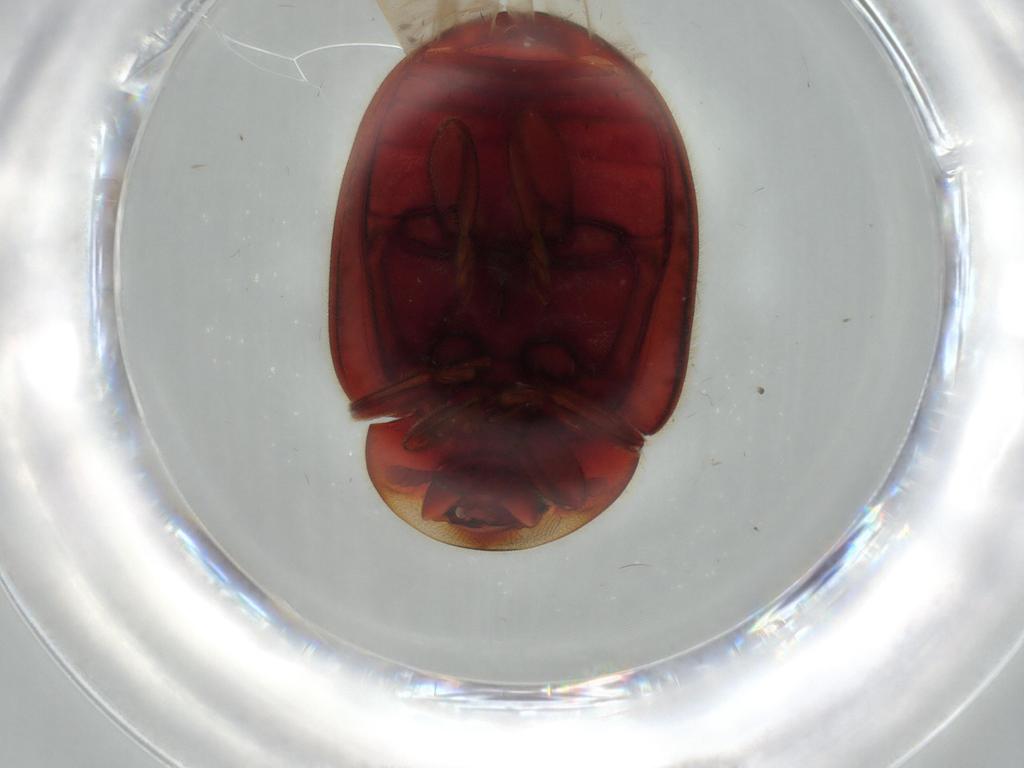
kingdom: Animalia
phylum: Arthropoda
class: Insecta
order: Coleoptera
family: Coccinellidae
